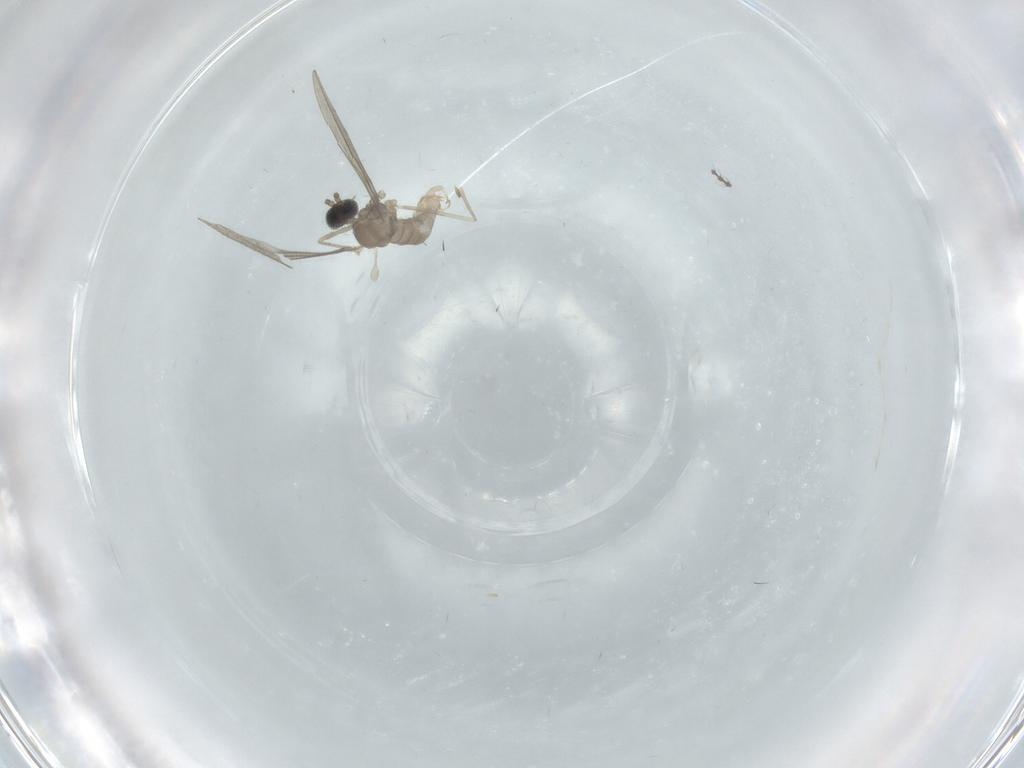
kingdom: Animalia
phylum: Arthropoda
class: Insecta
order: Diptera
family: Cecidomyiidae
